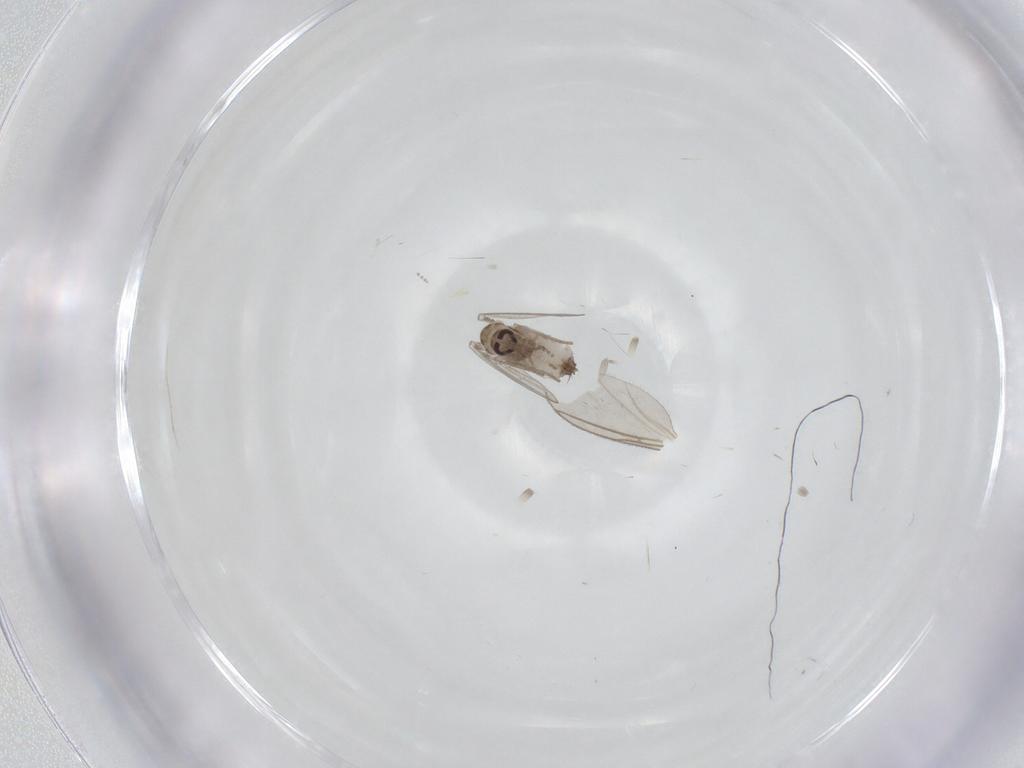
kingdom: Animalia
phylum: Arthropoda
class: Insecta
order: Diptera
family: Psychodidae
